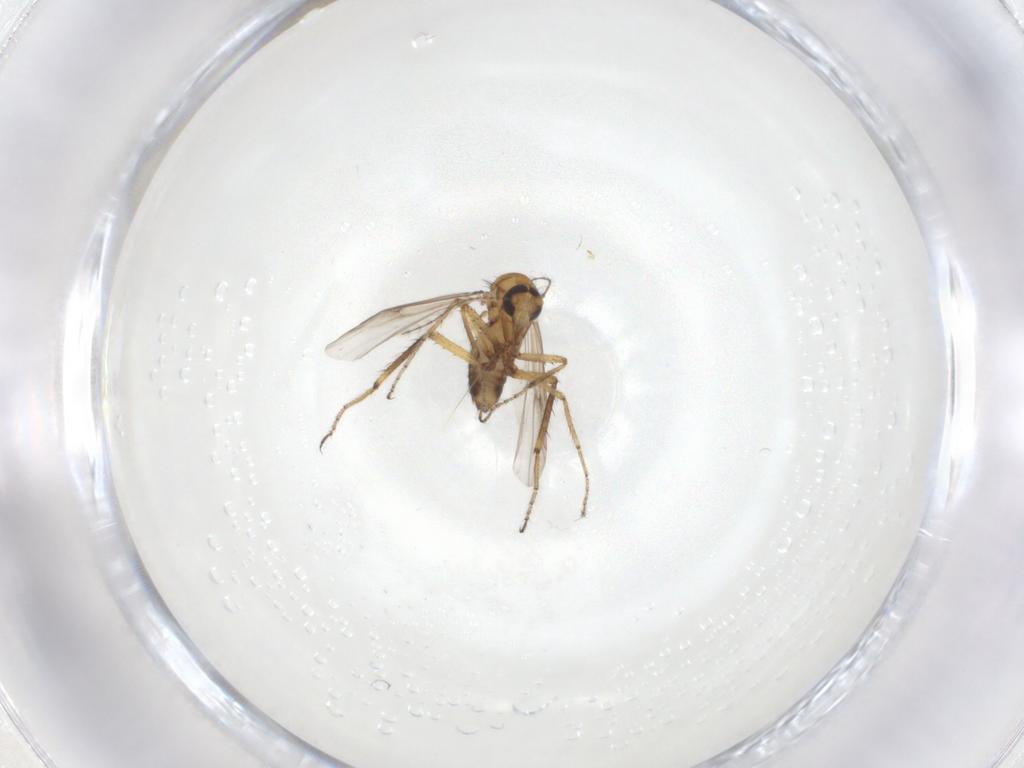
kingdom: Animalia
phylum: Arthropoda
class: Insecta
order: Diptera
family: Ceratopogonidae
